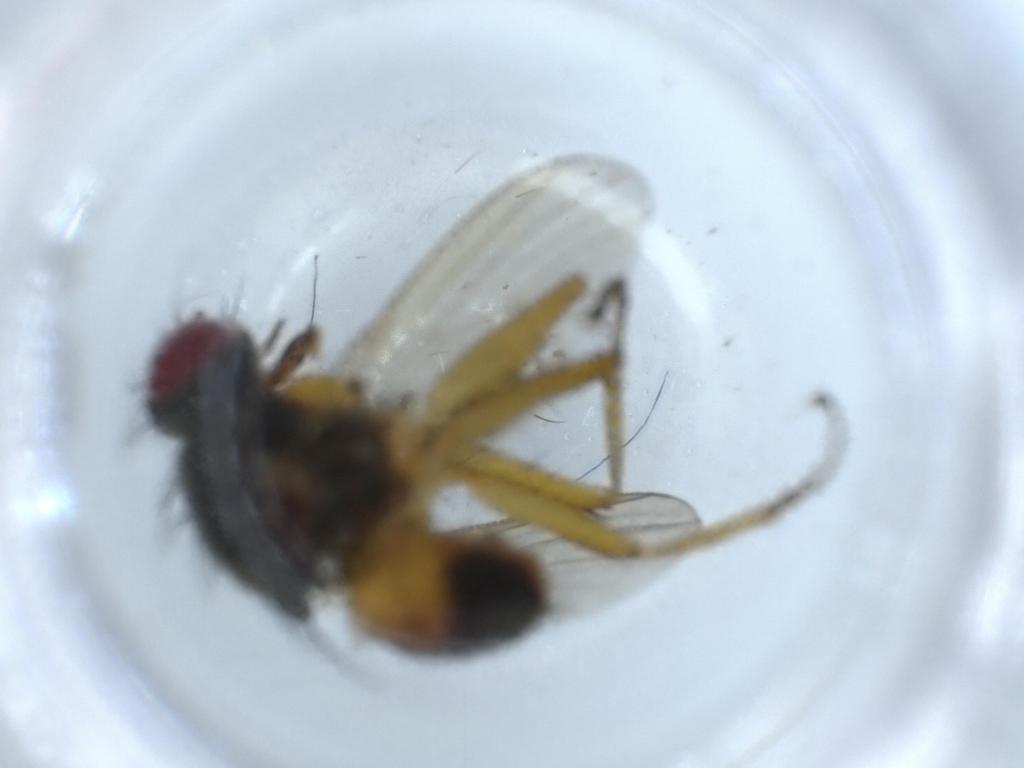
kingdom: Animalia
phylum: Arthropoda
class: Insecta
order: Diptera
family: Muscidae
